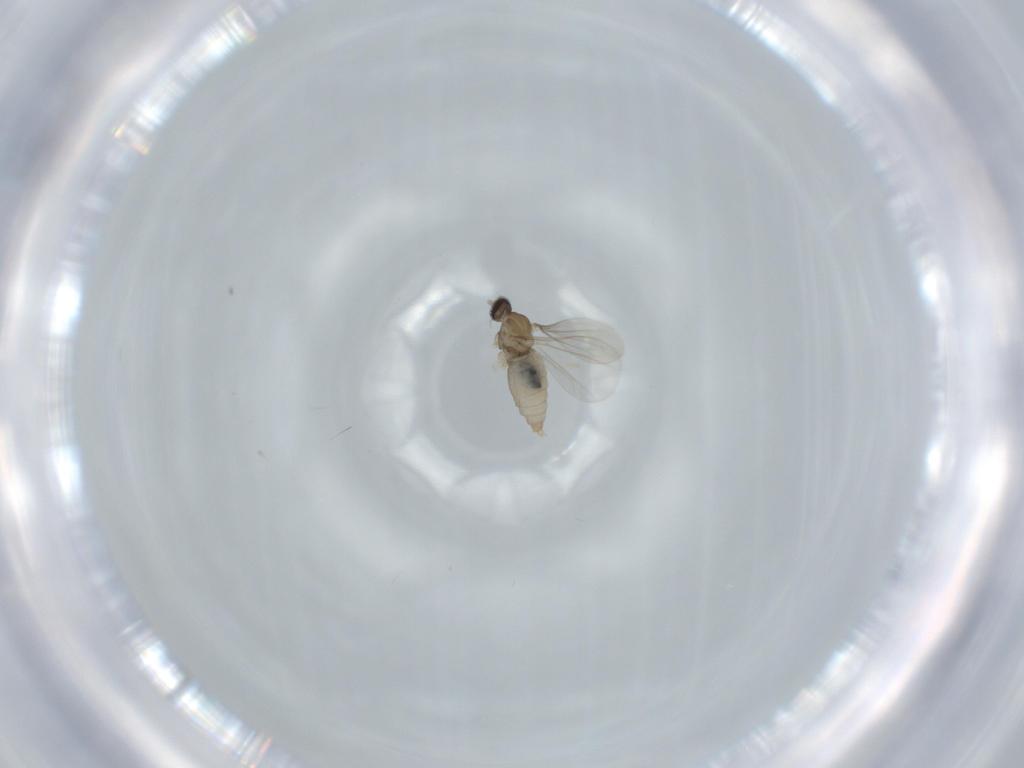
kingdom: Animalia
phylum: Arthropoda
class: Insecta
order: Diptera
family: Cecidomyiidae
